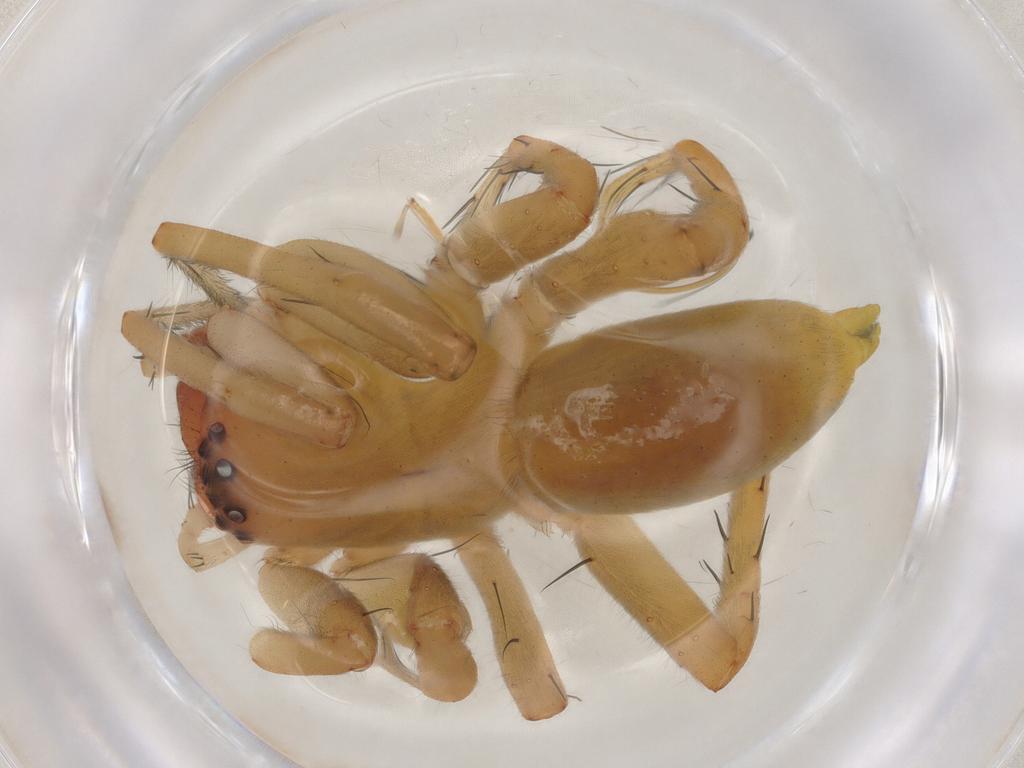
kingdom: Animalia
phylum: Arthropoda
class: Arachnida
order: Araneae
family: Clubionidae
